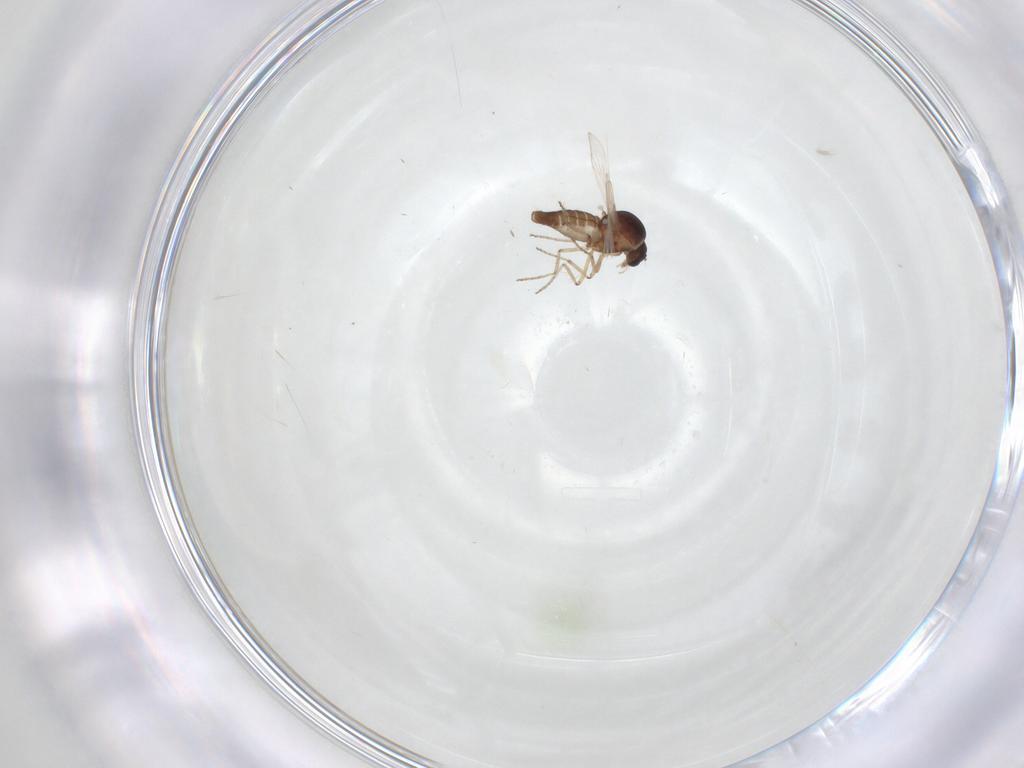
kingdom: Animalia
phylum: Arthropoda
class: Insecta
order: Diptera
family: Ceratopogonidae
